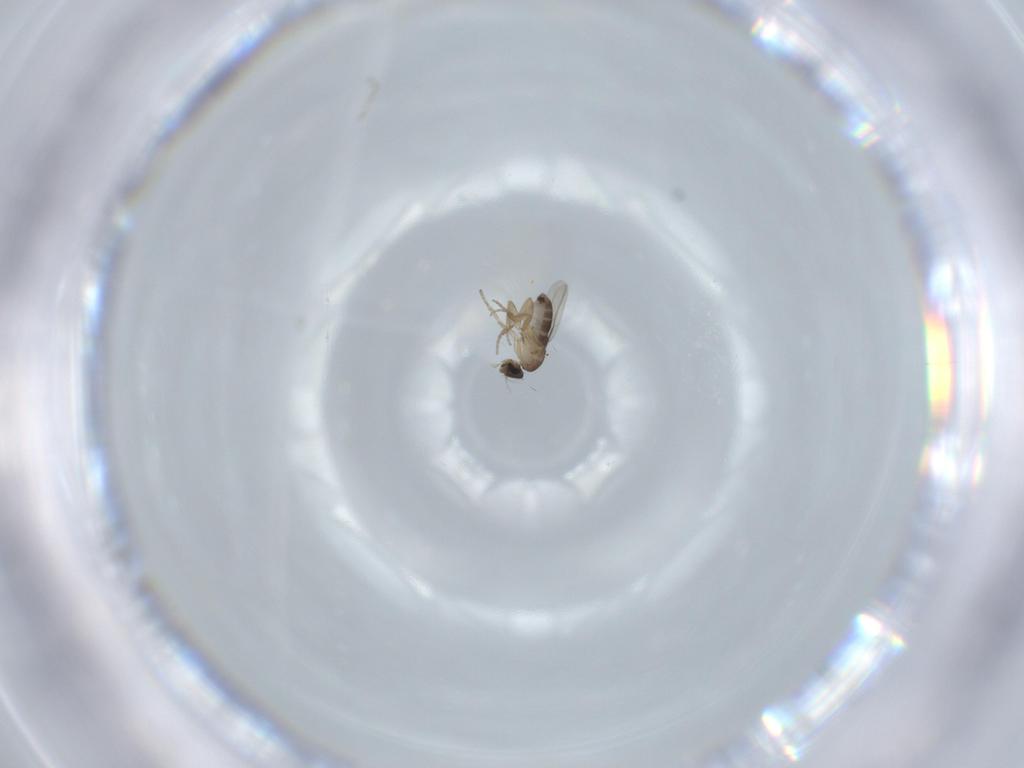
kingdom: Animalia
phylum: Arthropoda
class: Insecta
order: Diptera
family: Phoridae
